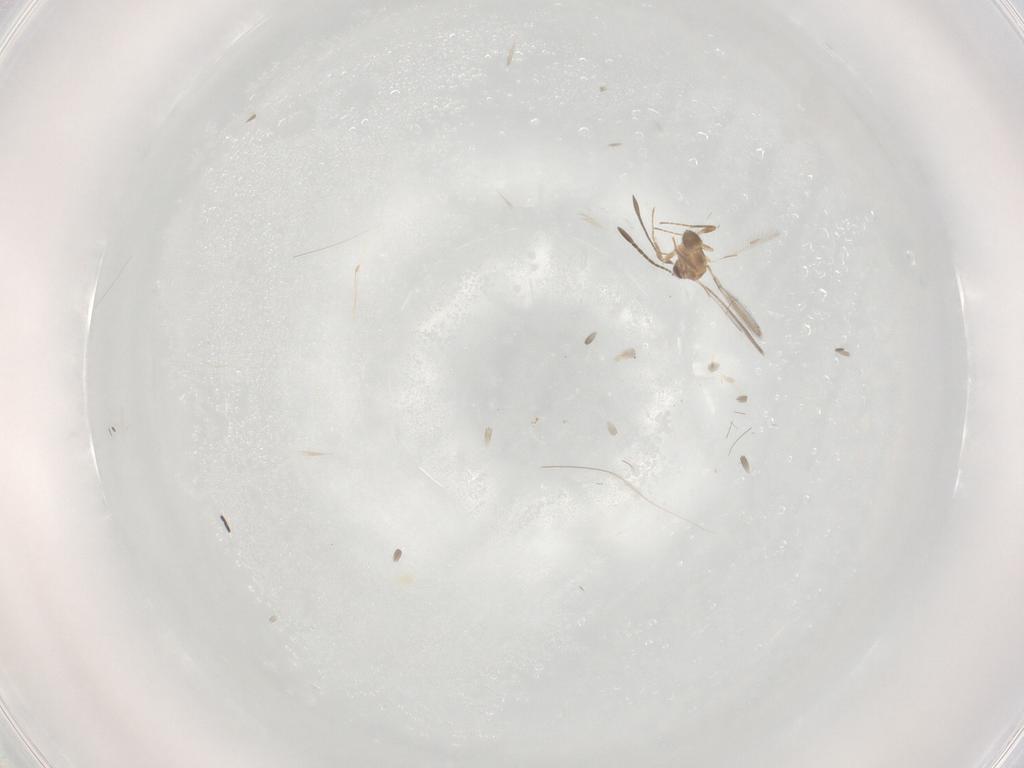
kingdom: Animalia
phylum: Arthropoda
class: Insecta
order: Hymenoptera
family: Mymaridae
